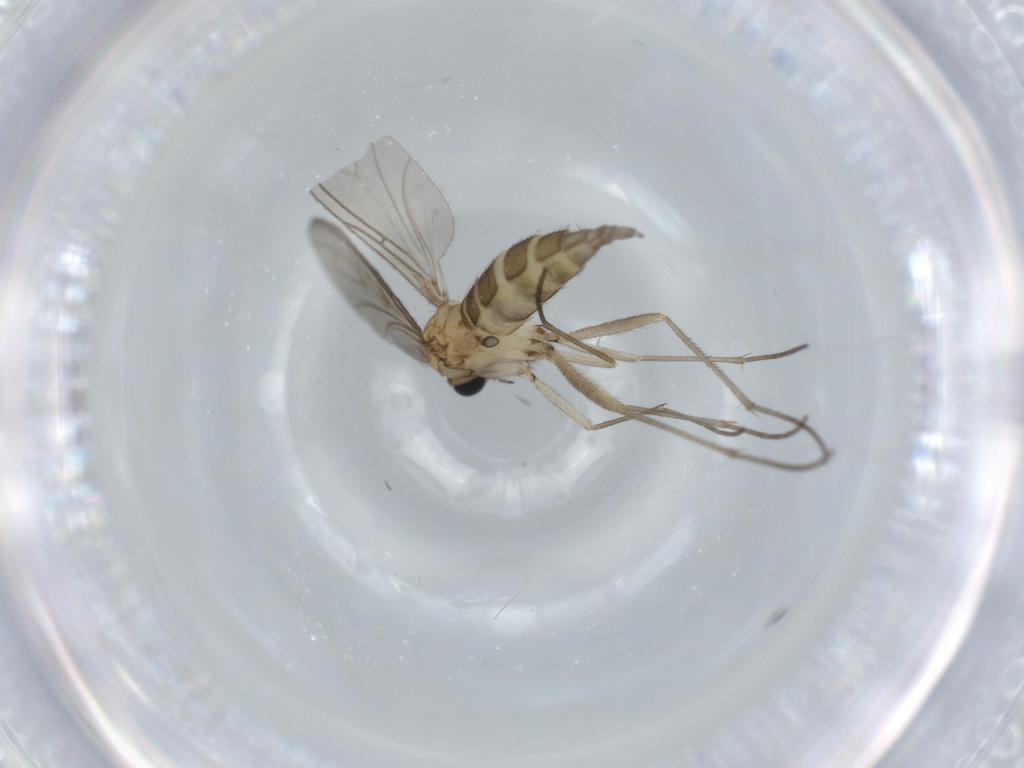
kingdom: Animalia
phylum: Arthropoda
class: Insecta
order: Diptera
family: Sciaridae
